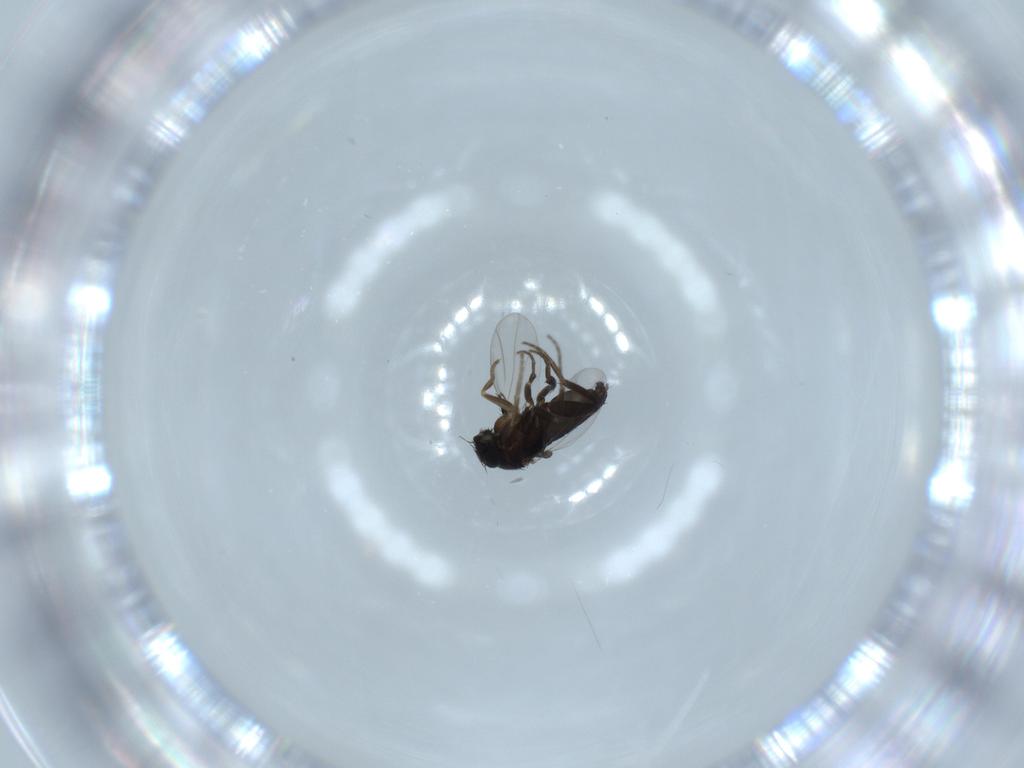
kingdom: Animalia
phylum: Arthropoda
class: Insecta
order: Diptera
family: Phoridae
